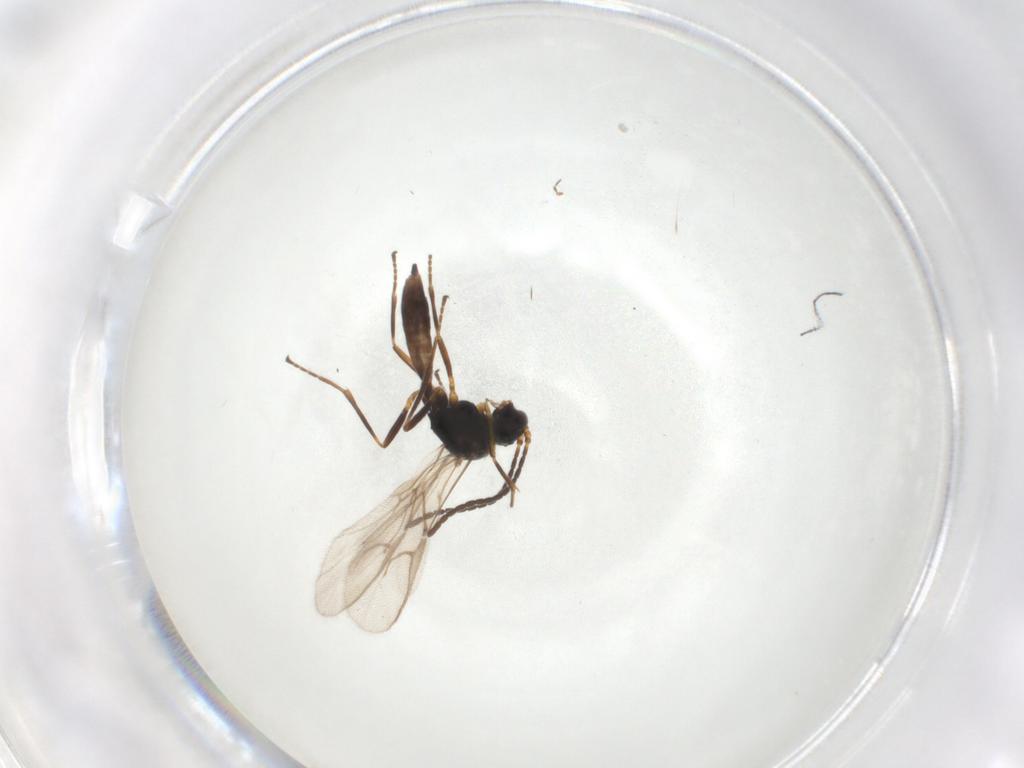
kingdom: Animalia
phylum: Arthropoda
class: Insecta
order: Hymenoptera
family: Braconidae
